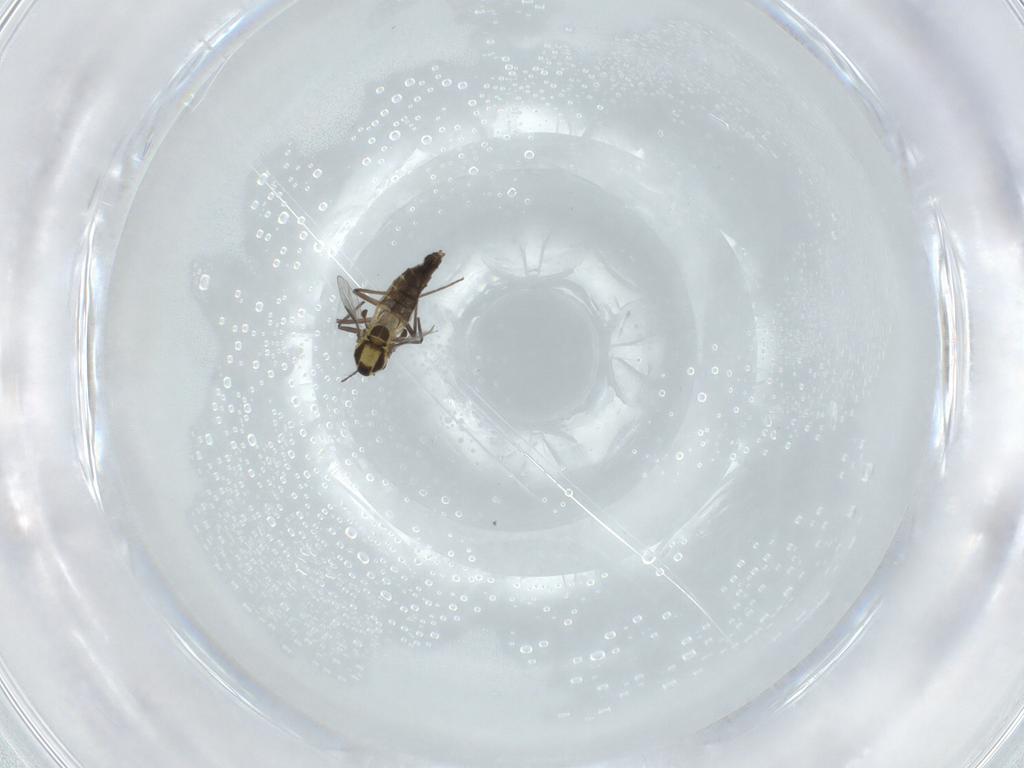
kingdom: Animalia
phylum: Arthropoda
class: Insecta
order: Diptera
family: Chironomidae
